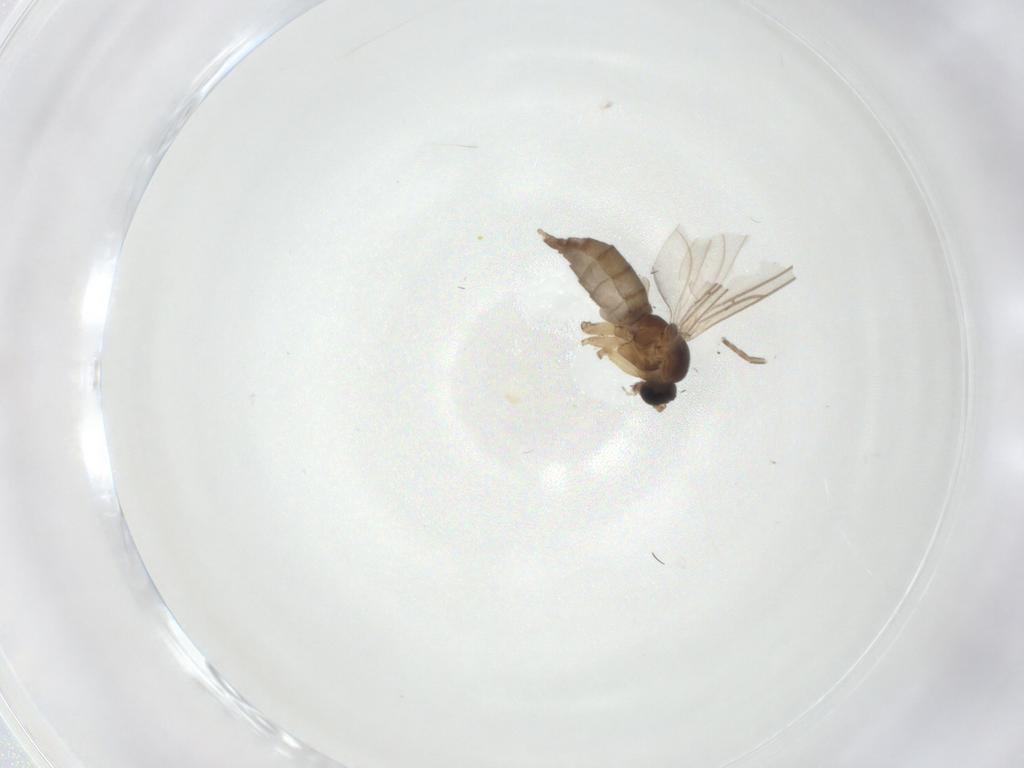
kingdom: Animalia
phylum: Arthropoda
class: Insecta
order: Diptera
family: Sciaridae
